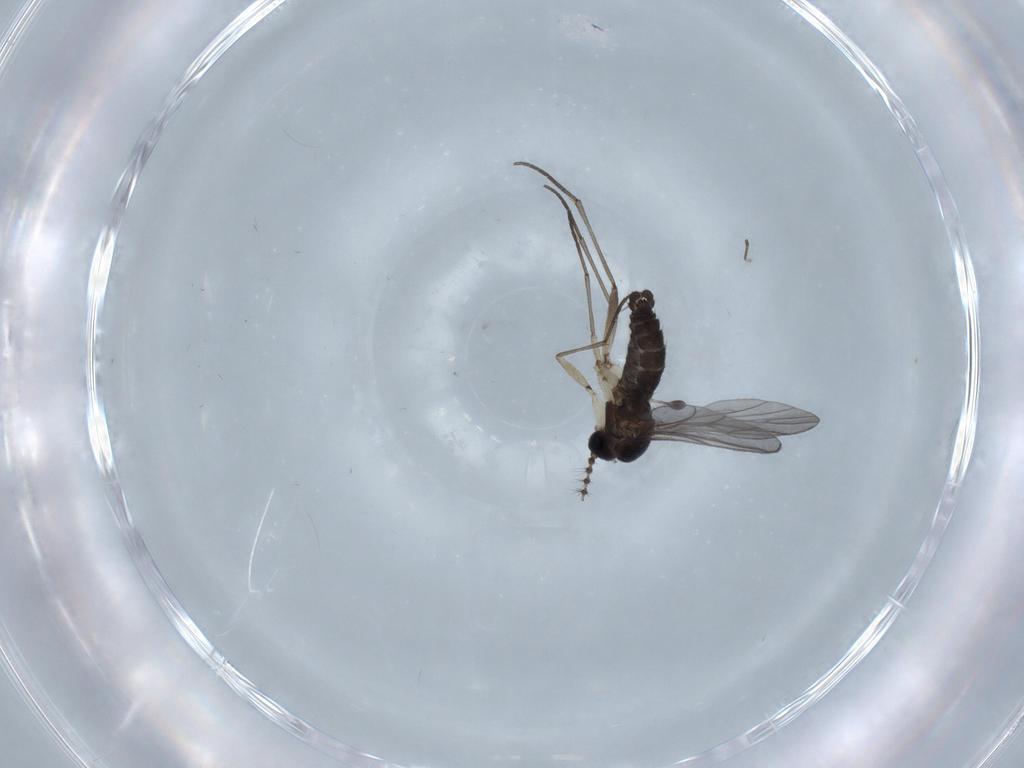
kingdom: Animalia
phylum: Arthropoda
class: Insecta
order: Diptera
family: Sciaridae
